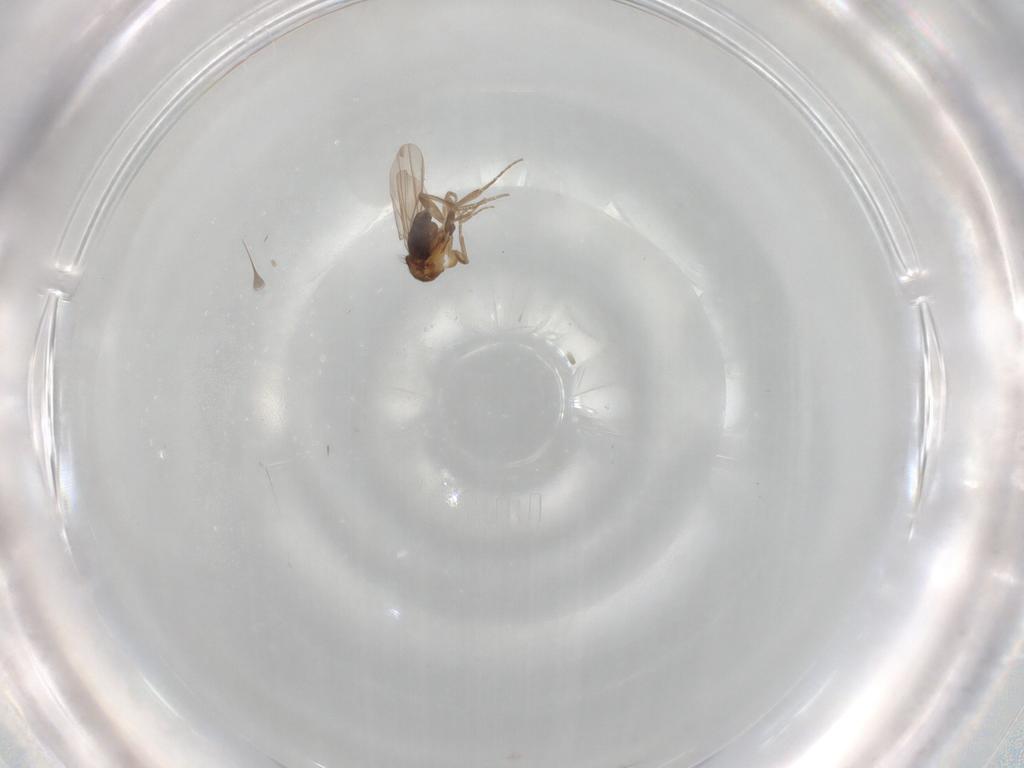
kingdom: Animalia
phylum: Arthropoda
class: Insecta
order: Diptera
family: Phoridae
